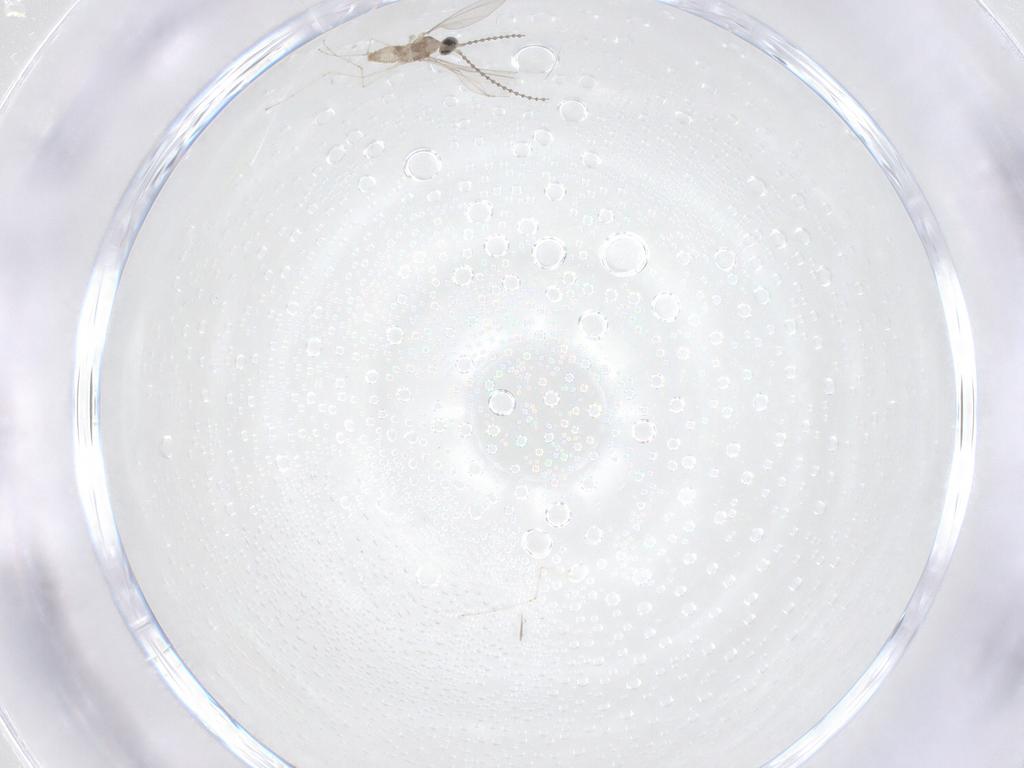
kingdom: Animalia
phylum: Arthropoda
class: Insecta
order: Diptera
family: Cecidomyiidae
